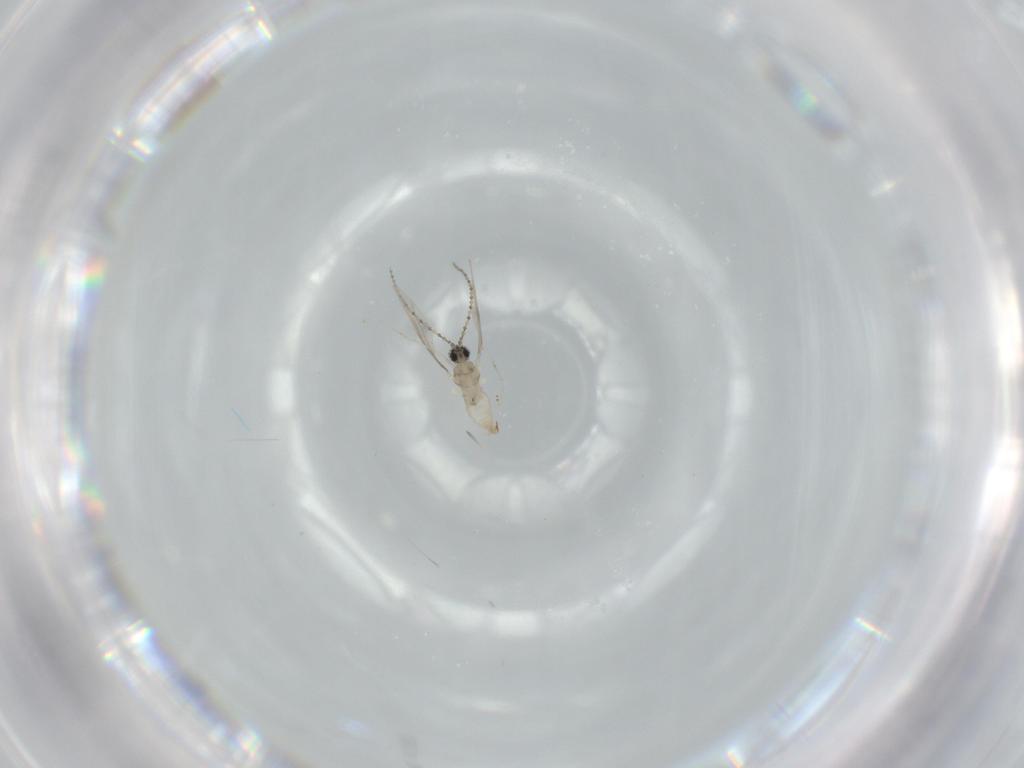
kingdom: Animalia
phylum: Arthropoda
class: Insecta
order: Diptera
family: Cecidomyiidae
